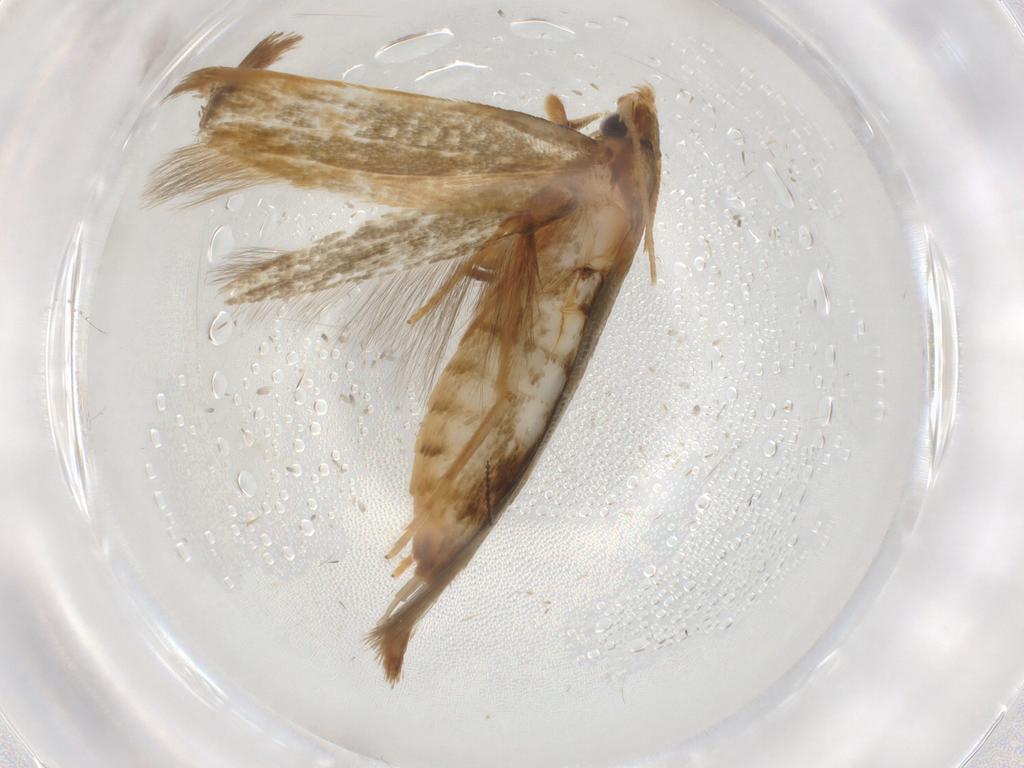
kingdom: Animalia
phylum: Arthropoda
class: Insecta
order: Lepidoptera
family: Tineidae
